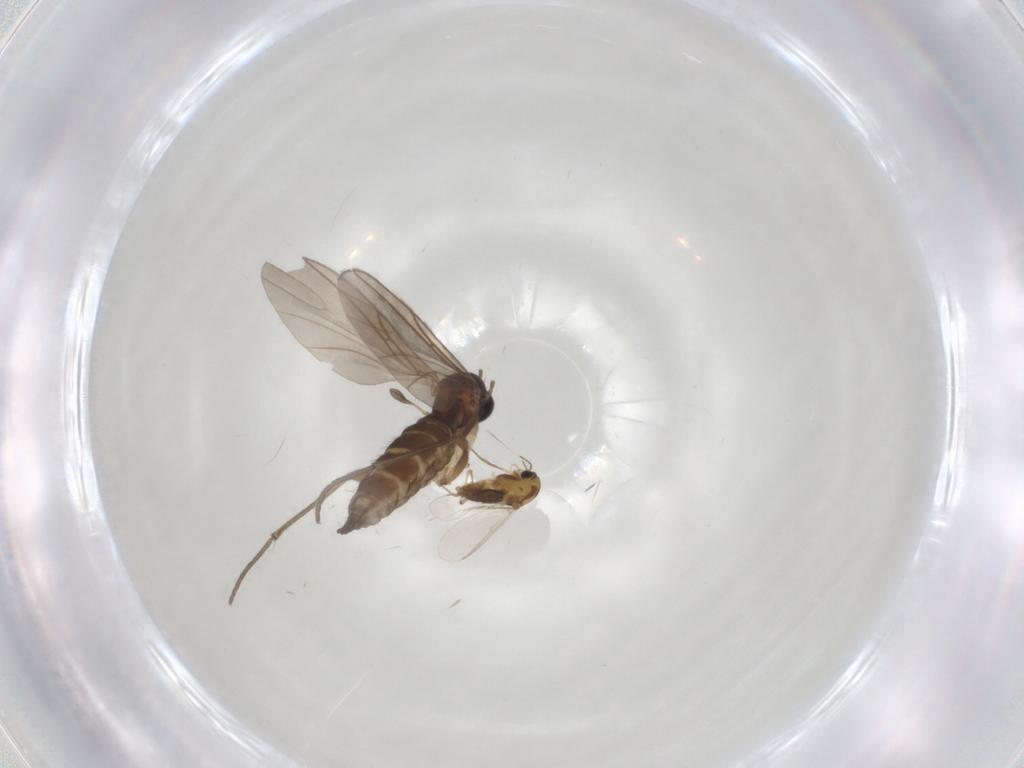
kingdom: Animalia
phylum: Arthropoda
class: Insecta
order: Diptera
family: Chironomidae
